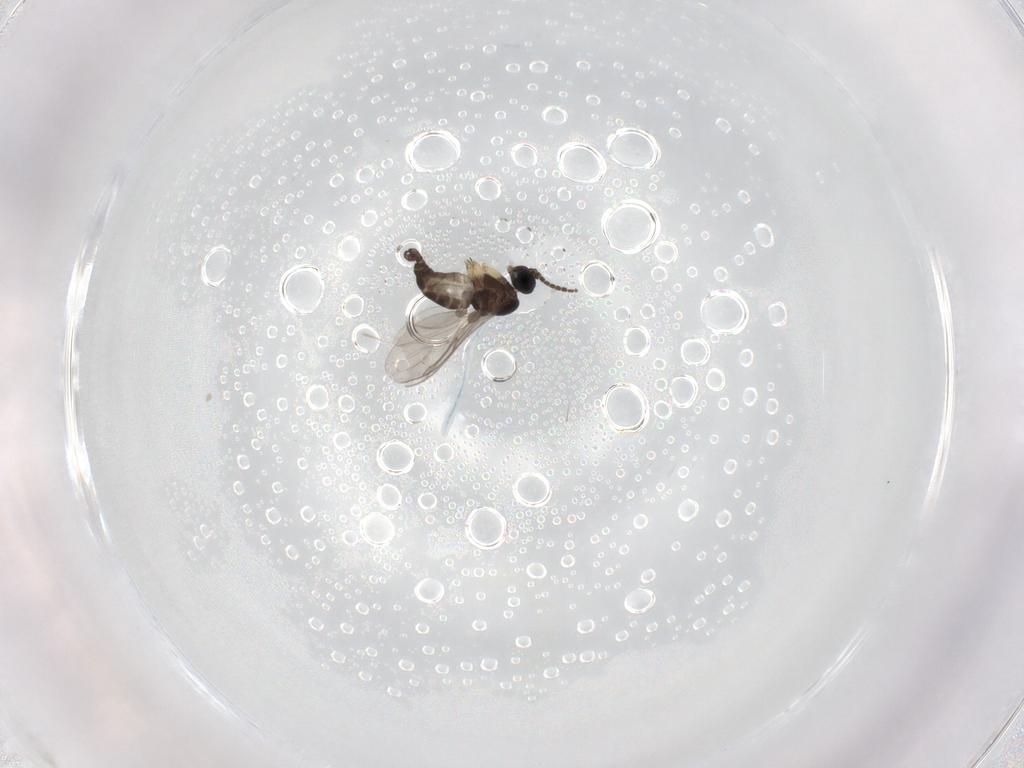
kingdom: Animalia
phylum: Arthropoda
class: Insecta
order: Diptera
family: Sciaridae
